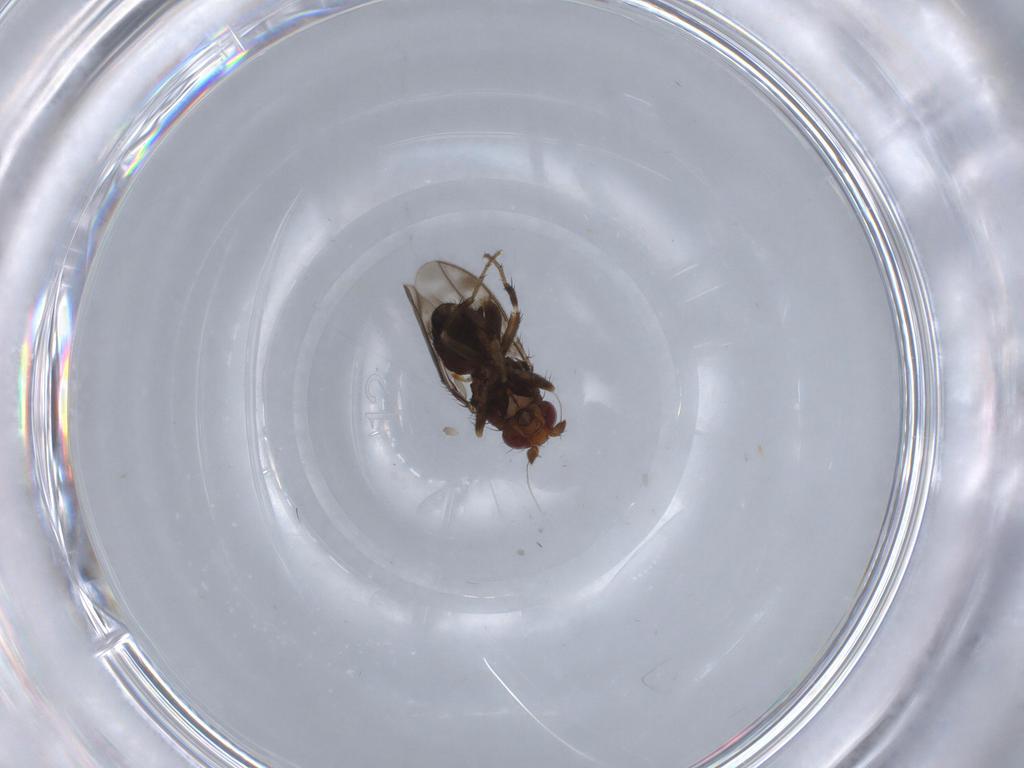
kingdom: Animalia
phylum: Arthropoda
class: Insecta
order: Diptera
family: Sphaeroceridae
